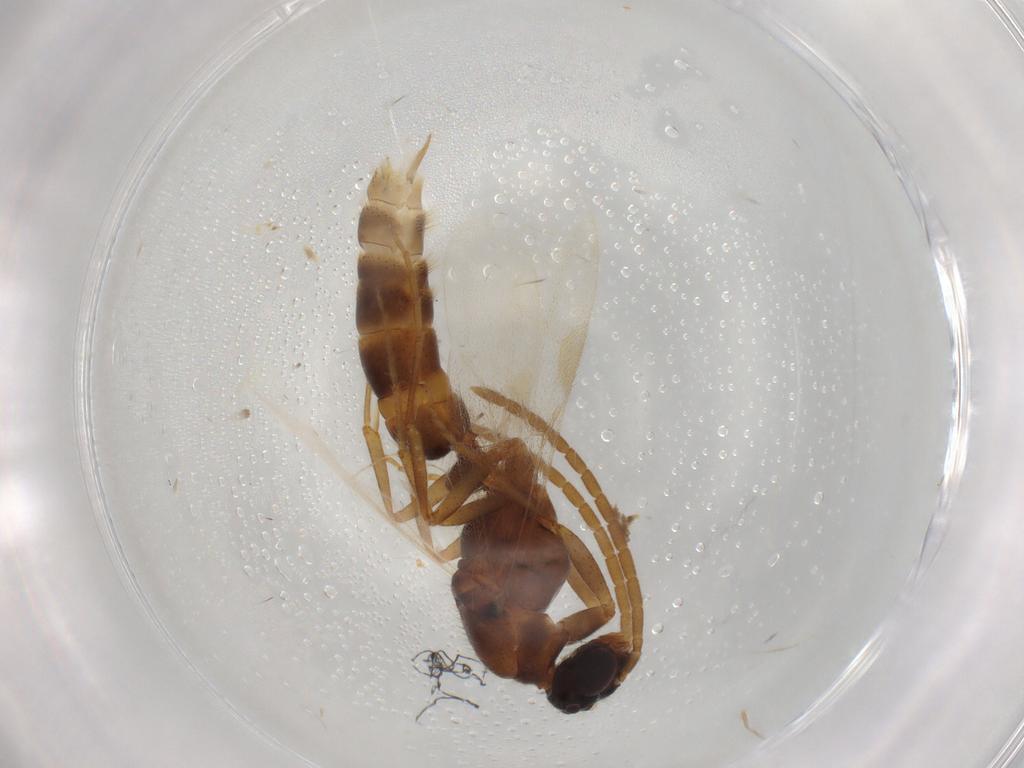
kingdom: Animalia
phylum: Arthropoda
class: Insecta
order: Hymenoptera
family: Formicidae
